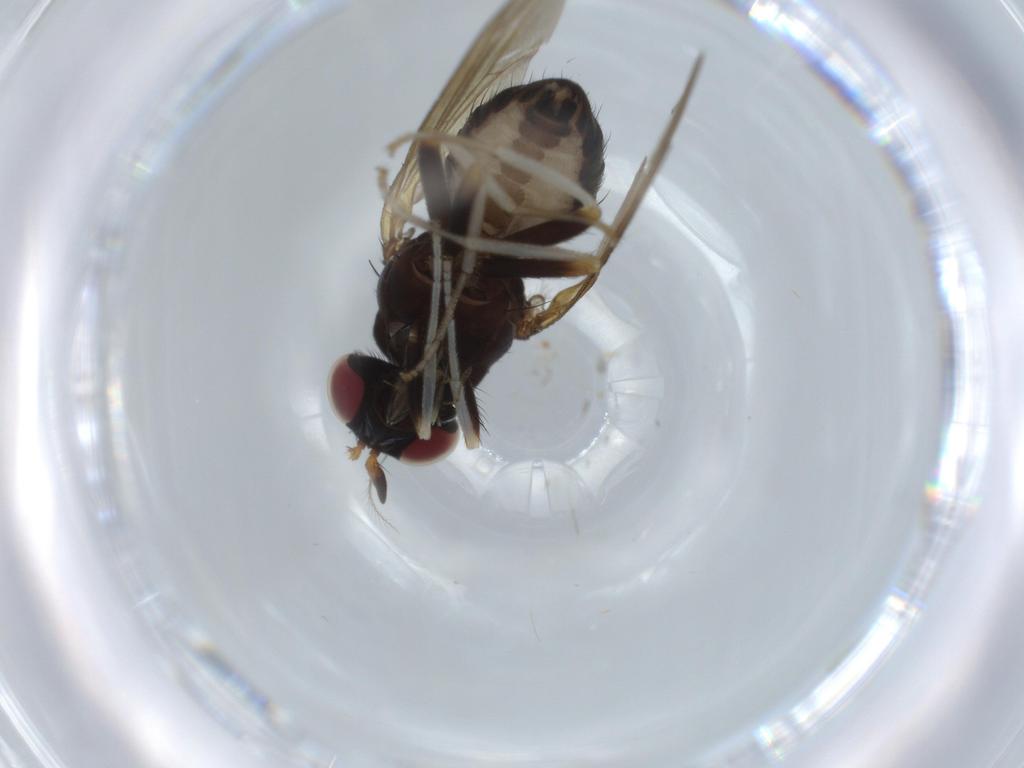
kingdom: Animalia
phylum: Arthropoda
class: Insecta
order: Diptera
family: Lauxaniidae
